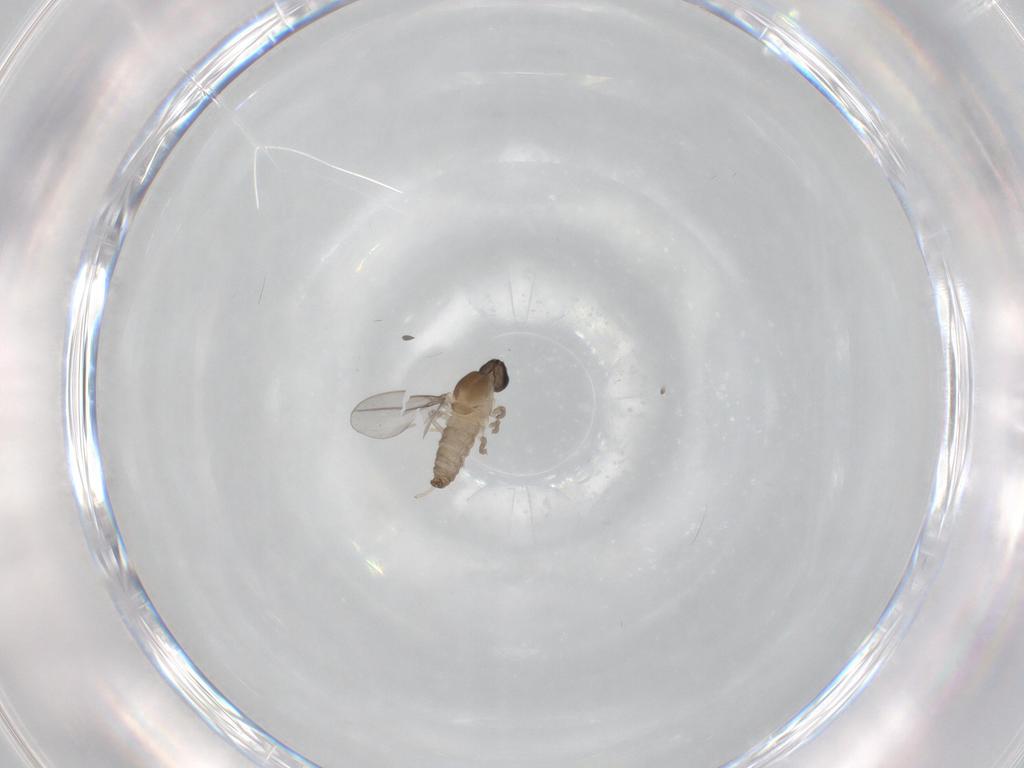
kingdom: Animalia
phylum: Arthropoda
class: Insecta
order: Diptera
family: Cecidomyiidae
